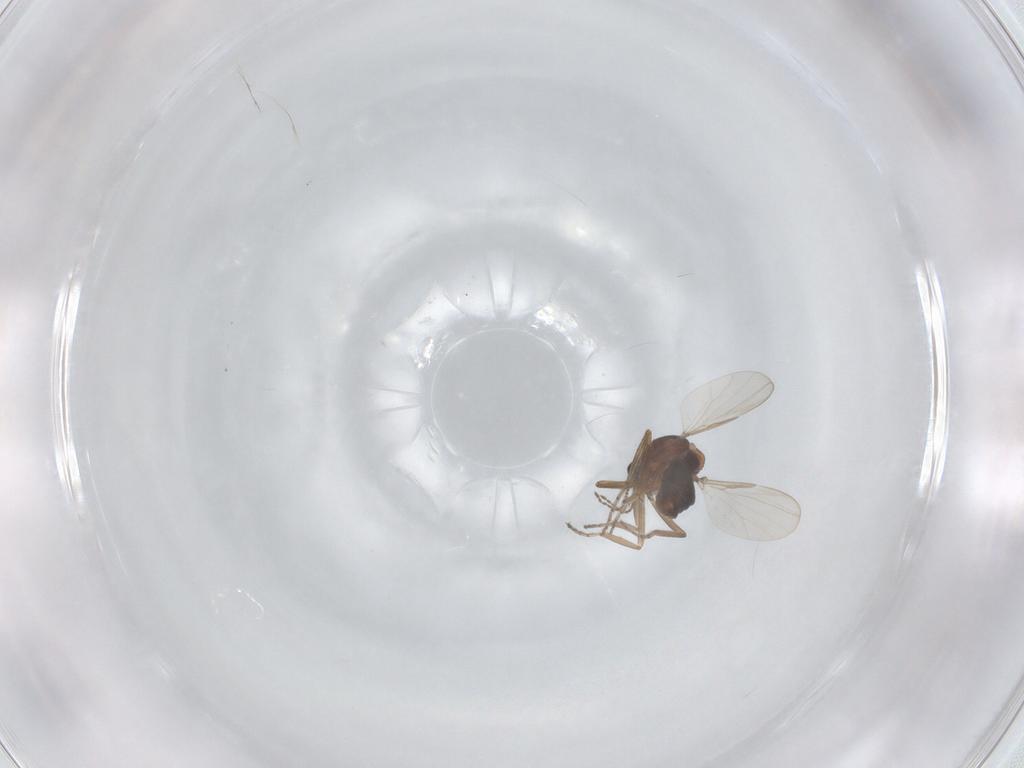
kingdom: Animalia
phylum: Arthropoda
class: Insecta
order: Diptera
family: Ceratopogonidae
